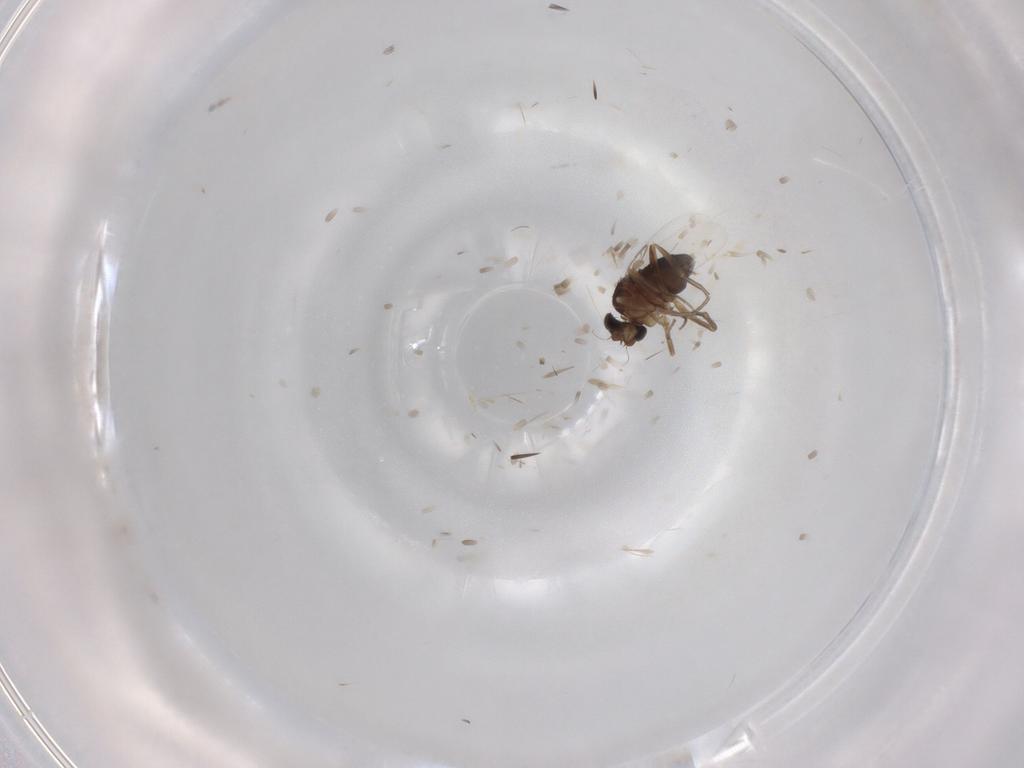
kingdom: Animalia
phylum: Arthropoda
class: Insecta
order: Diptera
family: Phoridae
